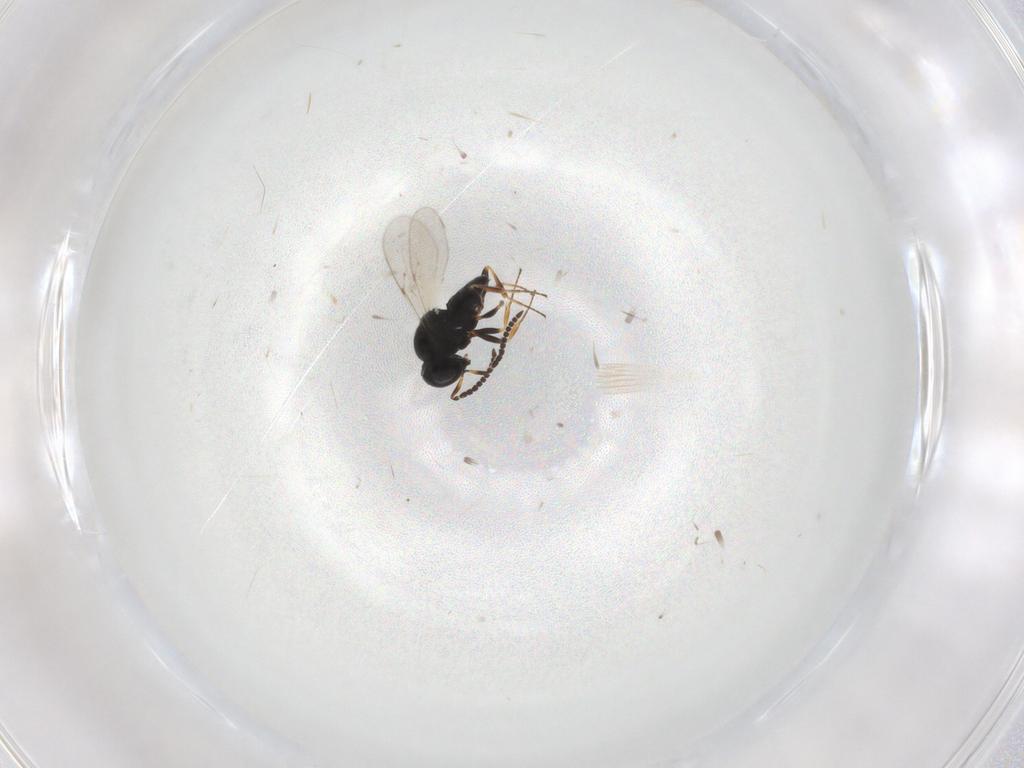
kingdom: Animalia
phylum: Arthropoda
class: Insecta
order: Coleoptera
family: Curculionidae
